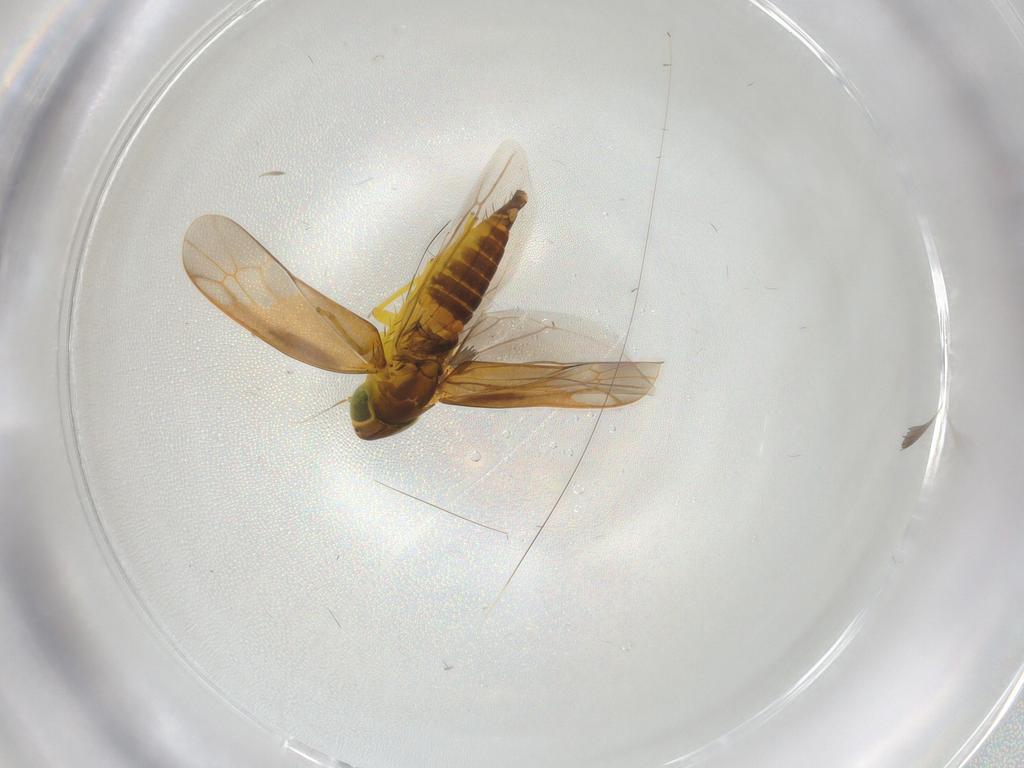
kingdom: Animalia
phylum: Arthropoda
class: Insecta
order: Hemiptera
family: Cicadellidae
